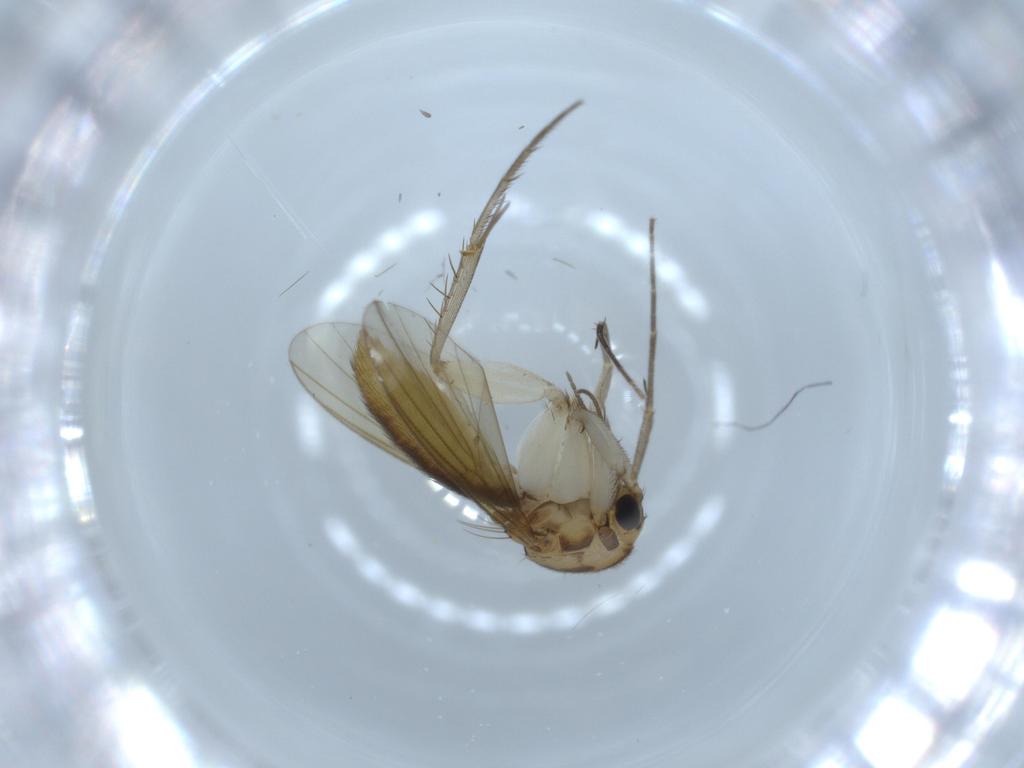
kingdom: Animalia
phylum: Arthropoda
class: Insecta
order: Diptera
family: Mycetophilidae
